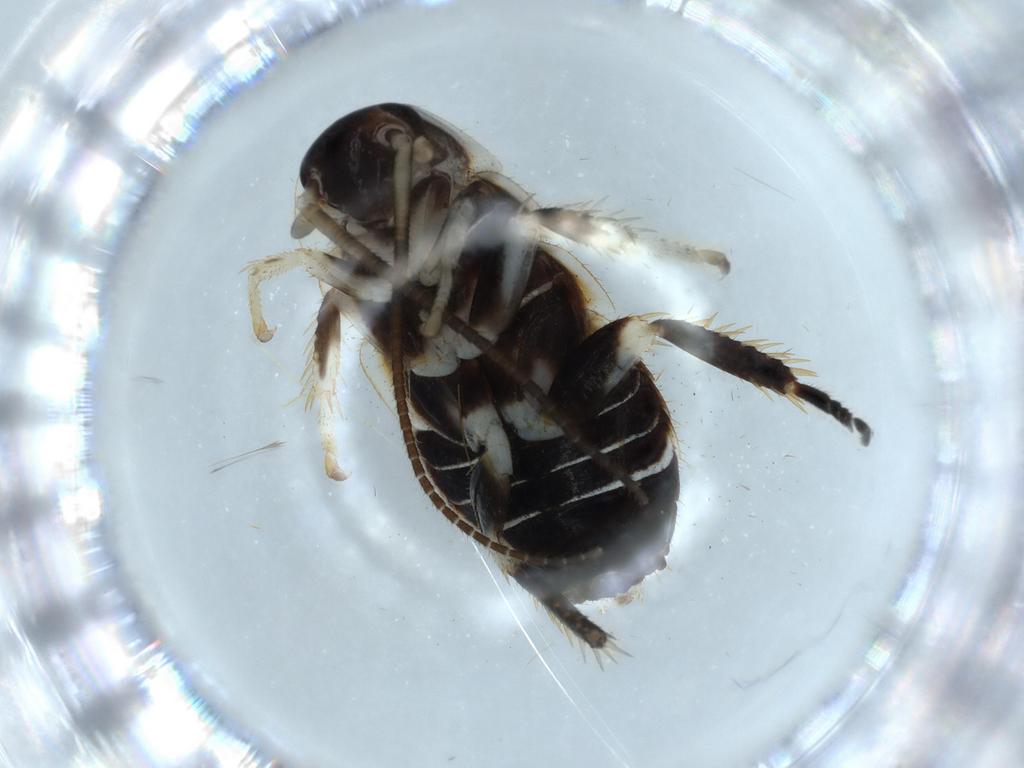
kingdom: Animalia
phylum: Arthropoda
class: Insecta
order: Blattodea
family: Ectobiidae
